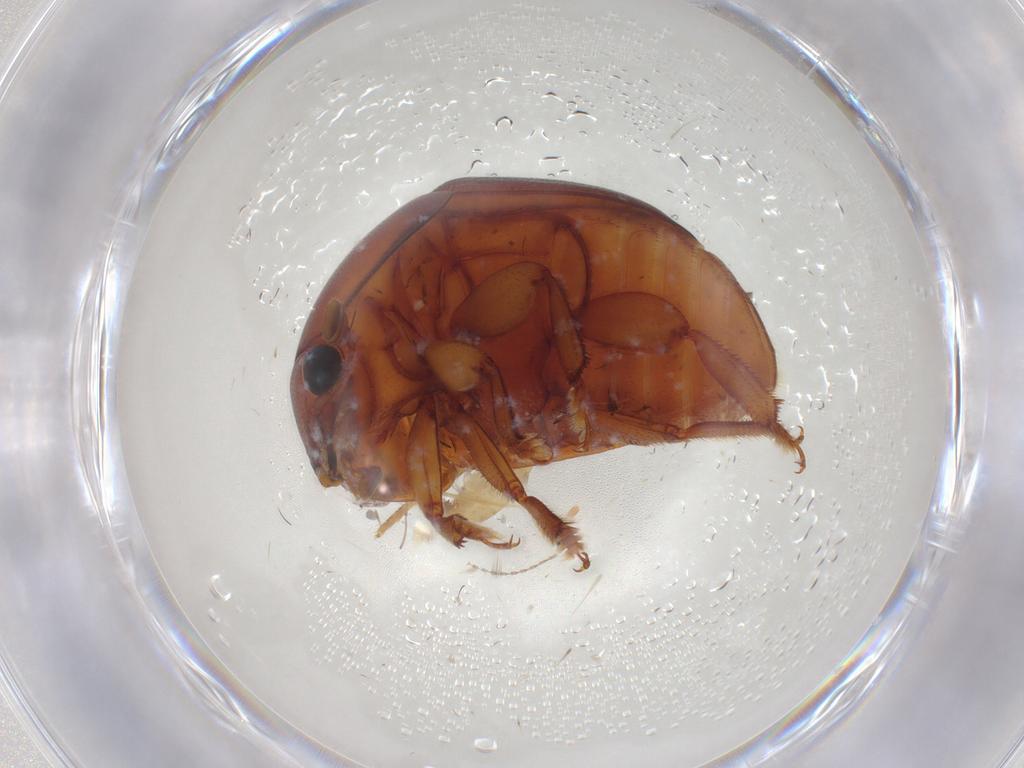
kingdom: Animalia
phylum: Arthropoda
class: Insecta
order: Coleoptera
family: Nitidulidae
